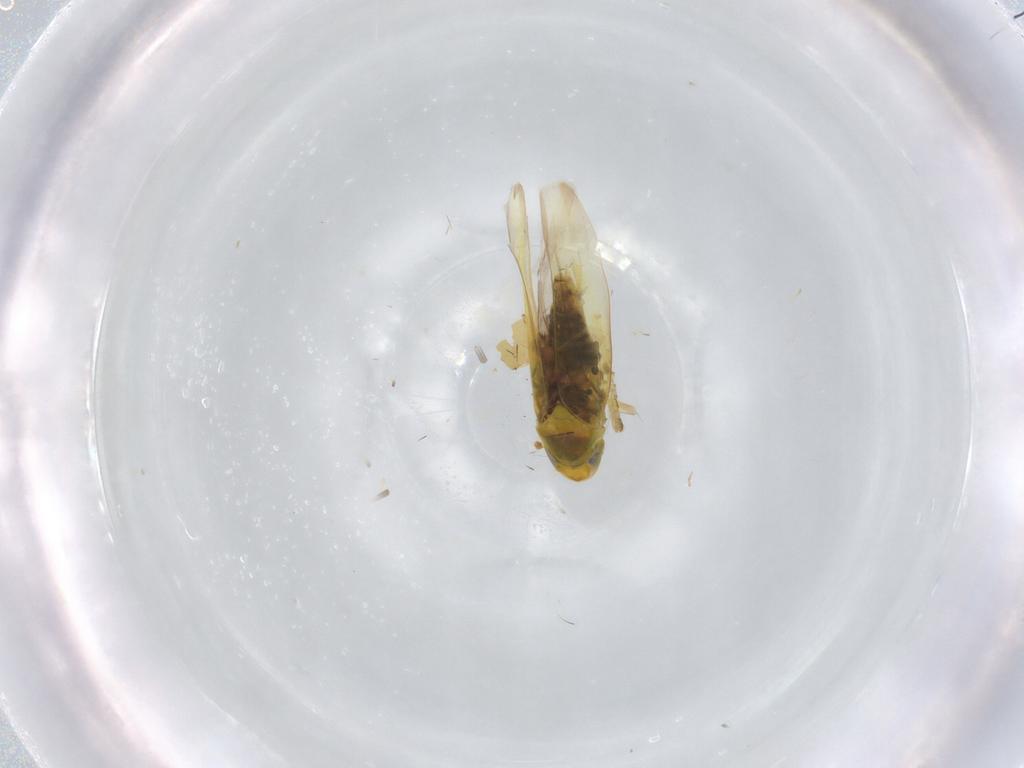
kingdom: Animalia
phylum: Arthropoda
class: Insecta
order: Hemiptera
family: Cicadellidae
